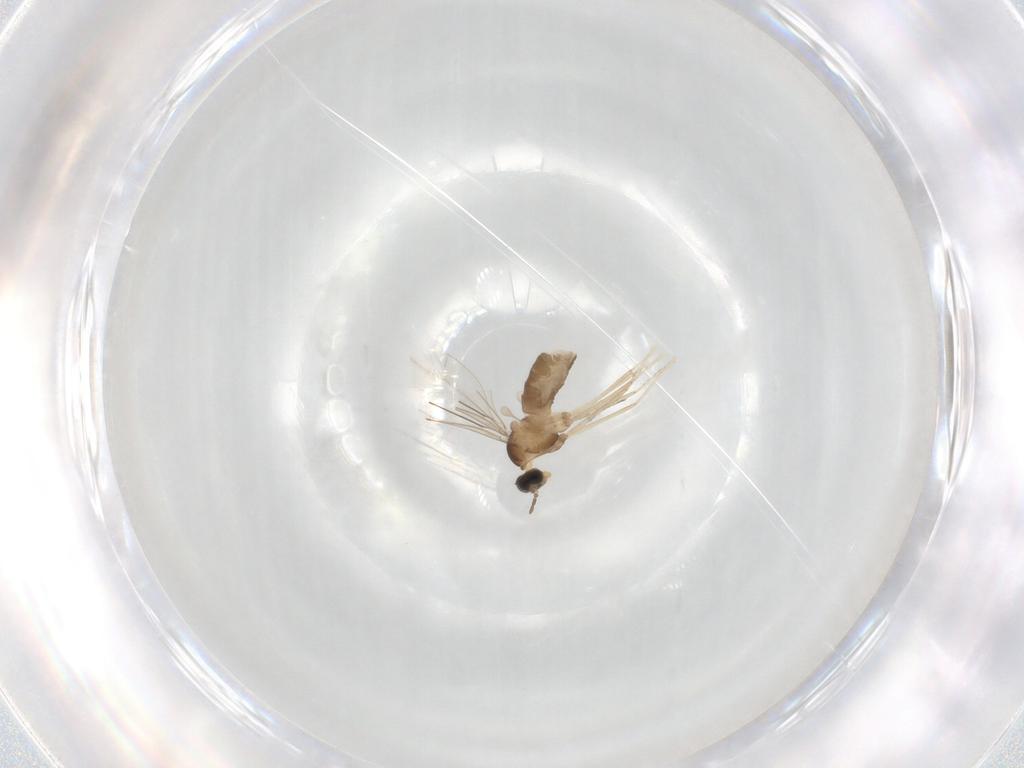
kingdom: Animalia
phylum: Arthropoda
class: Insecta
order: Diptera
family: Cecidomyiidae
